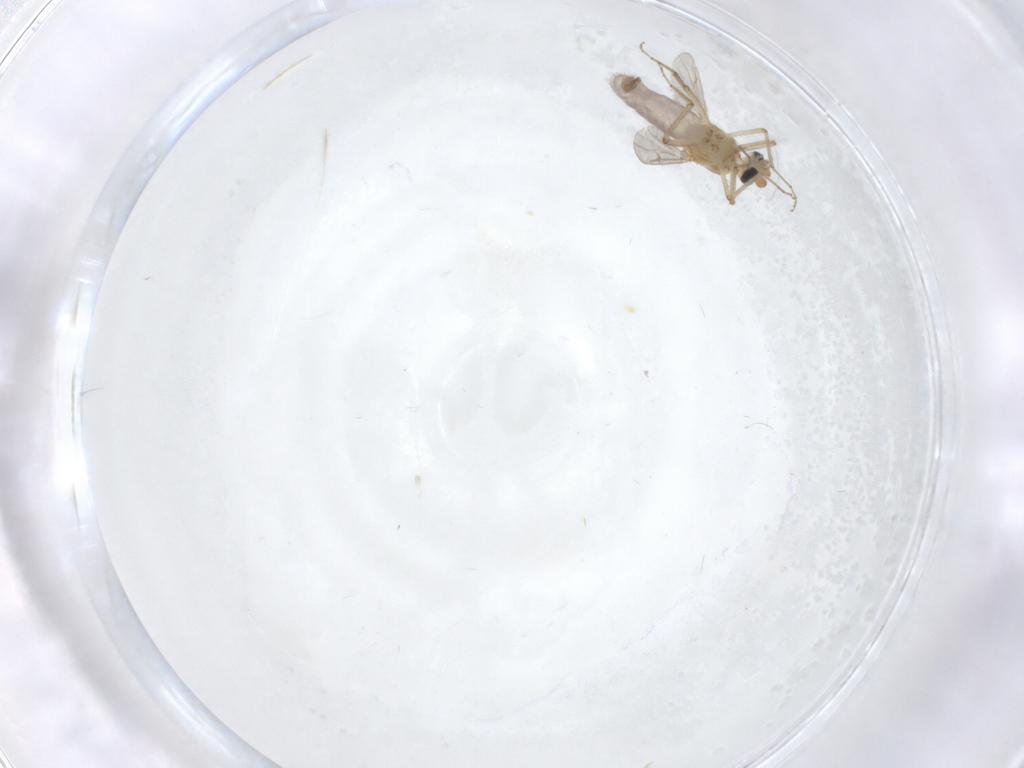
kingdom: Animalia
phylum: Arthropoda
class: Insecta
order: Diptera
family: Ceratopogonidae
